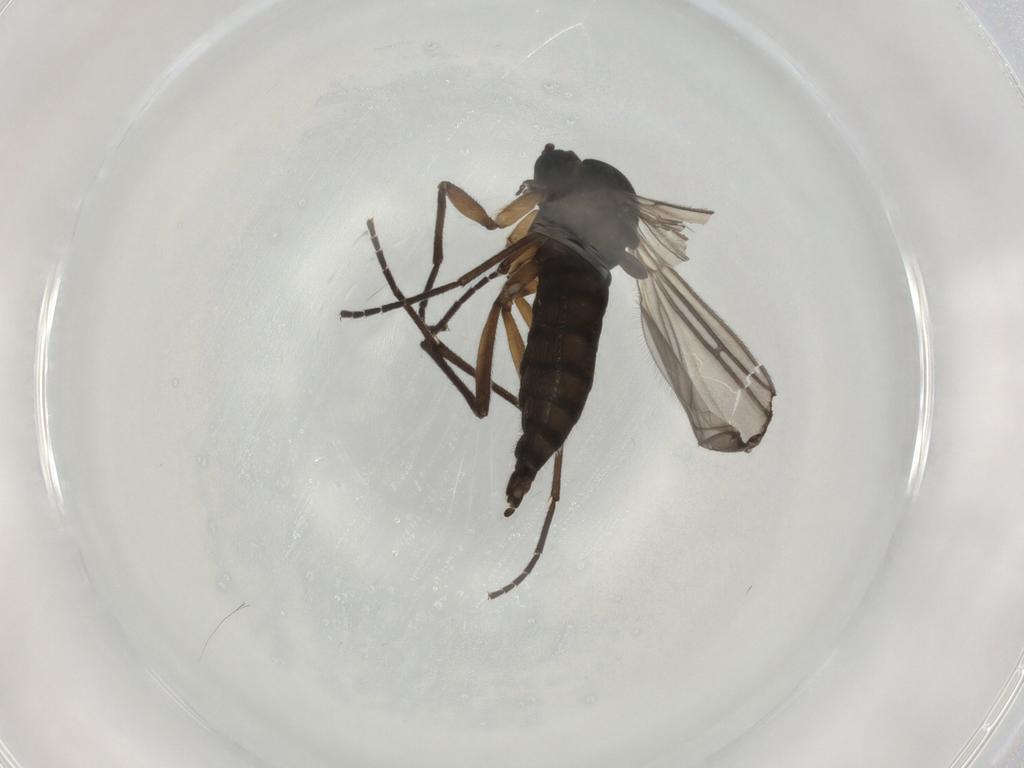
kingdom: Animalia
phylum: Arthropoda
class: Insecta
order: Diptera
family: Sciaridae
